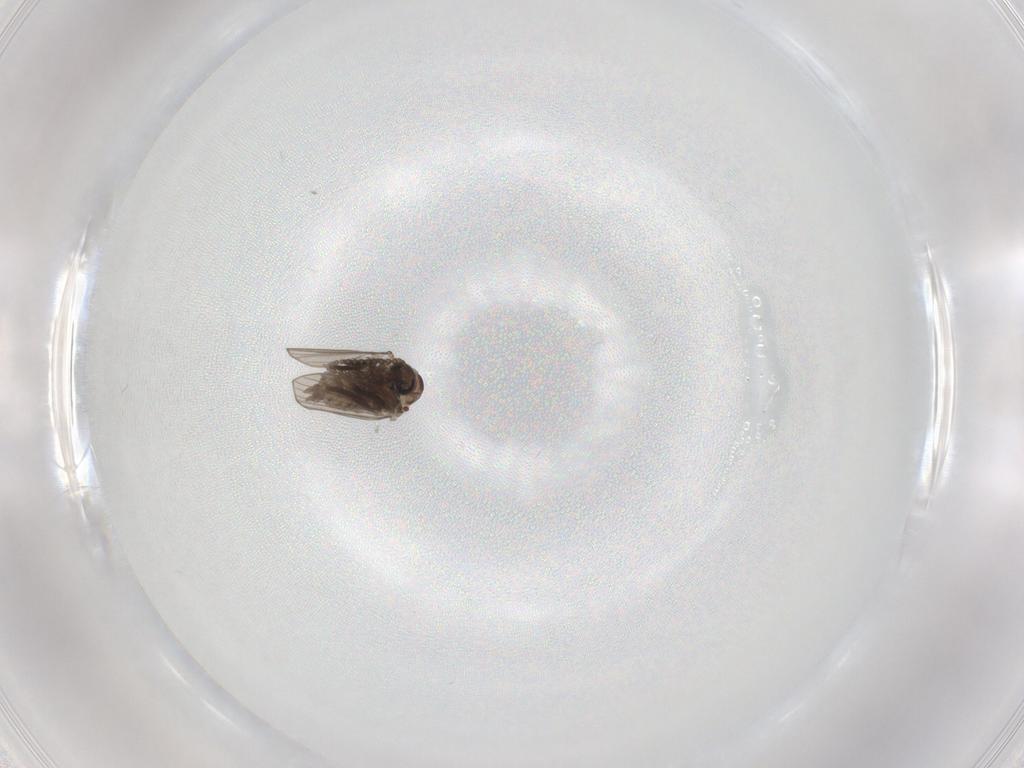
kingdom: Animalia
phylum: Arthropoda
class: Insecta
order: Diptera
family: Psychodidae
